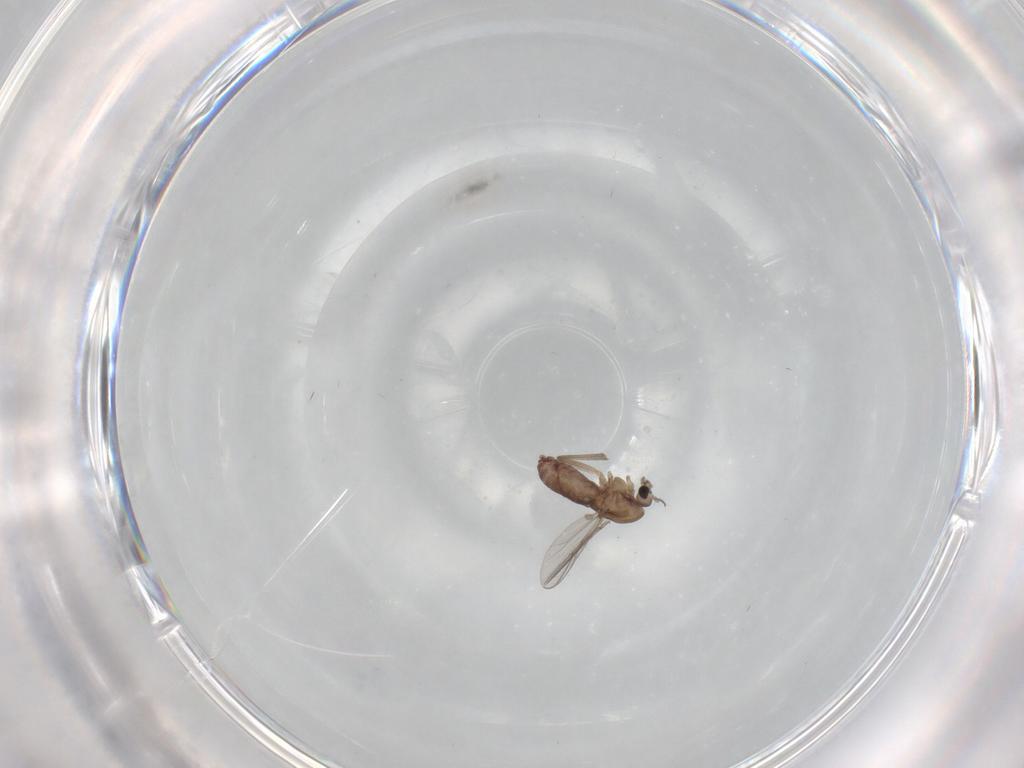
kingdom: Animalia
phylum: Arthropoda
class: Insecta
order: Diptera
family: Chironomidae
